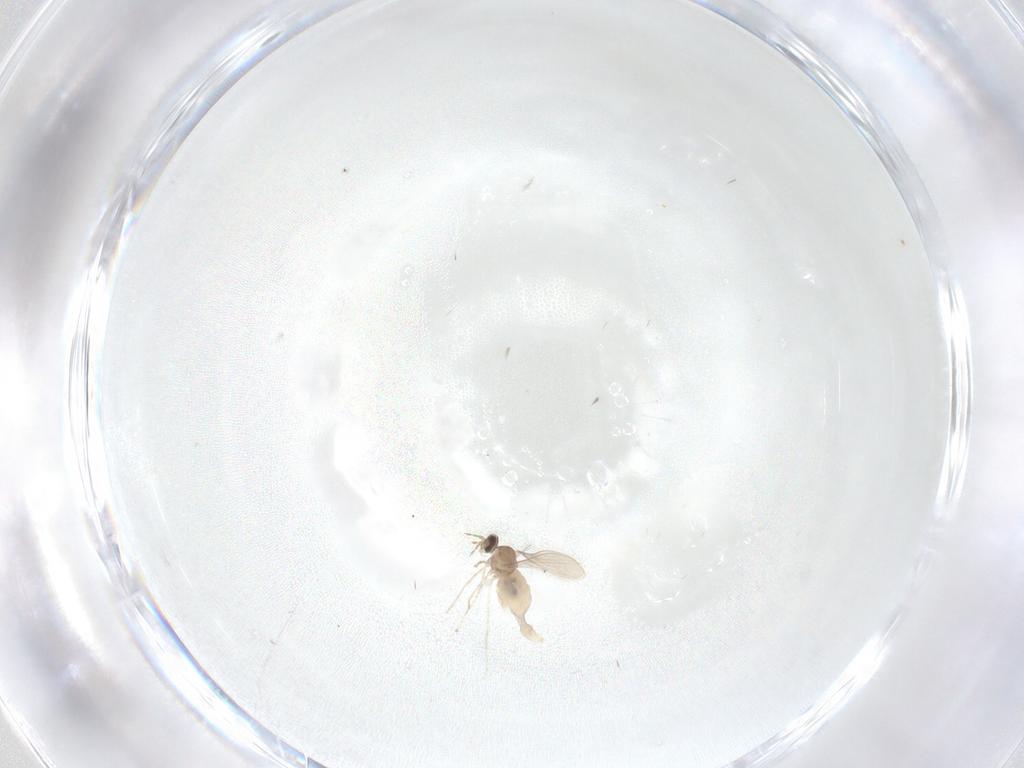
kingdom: Animalia
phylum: Arthropoda
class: Insecta
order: Diptera
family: Cecidomyiidae
